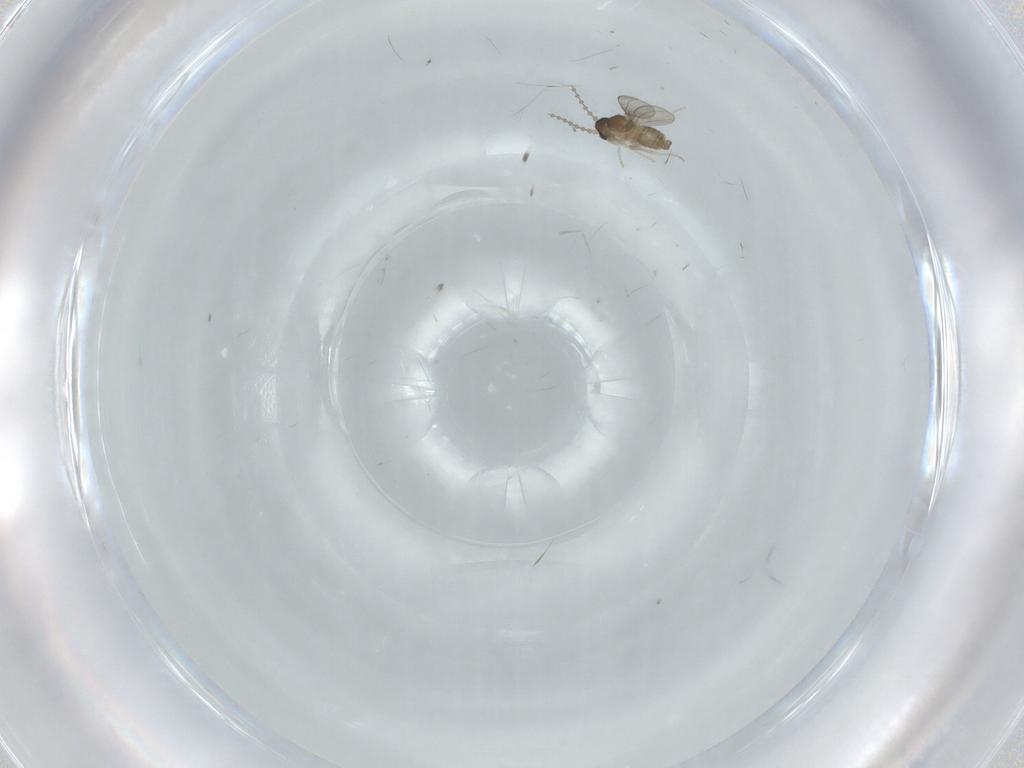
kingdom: Animalia
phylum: Arthropoda
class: Insecta
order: Diptera
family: Cecidomyiidae
